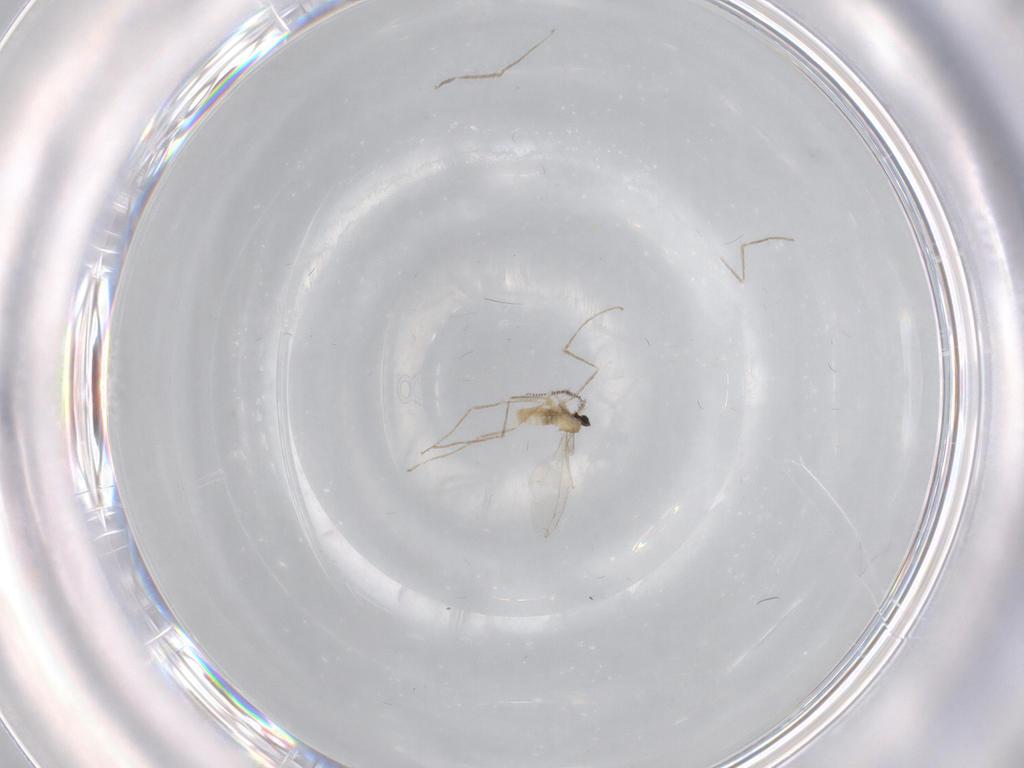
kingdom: Animalia
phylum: Arthropoda
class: Insecta
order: Diptera
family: Cecidomyiidae
